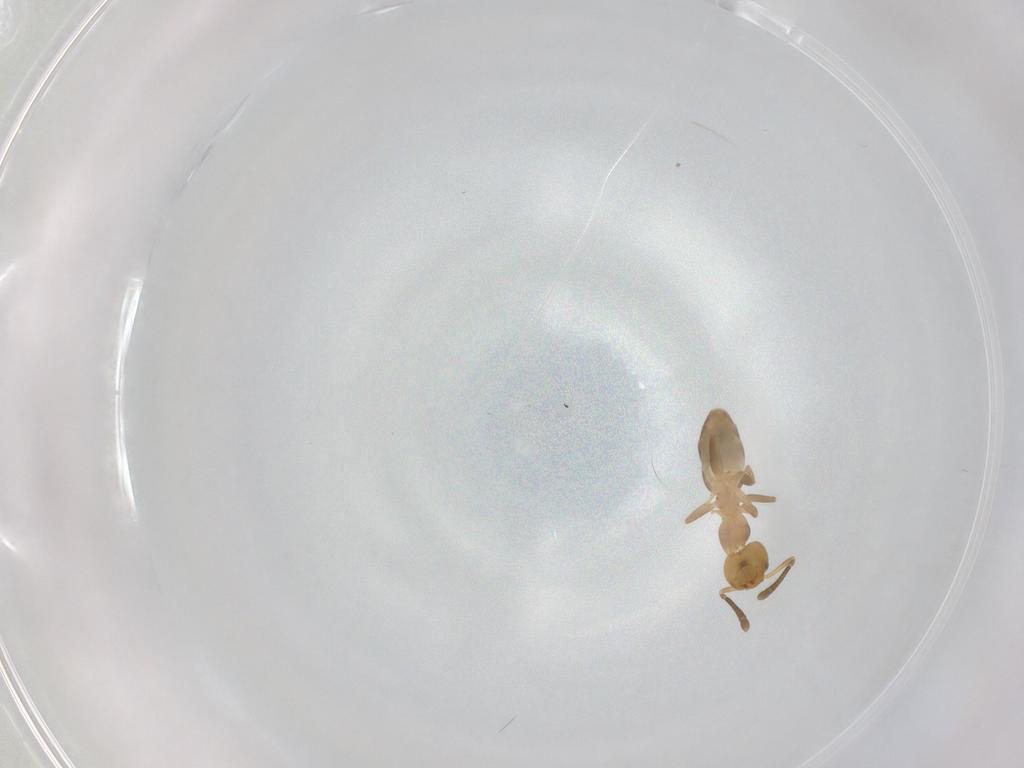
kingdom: Animalia
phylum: Arthropoda
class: Insecta
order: Hymenoptera
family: Formicidae
